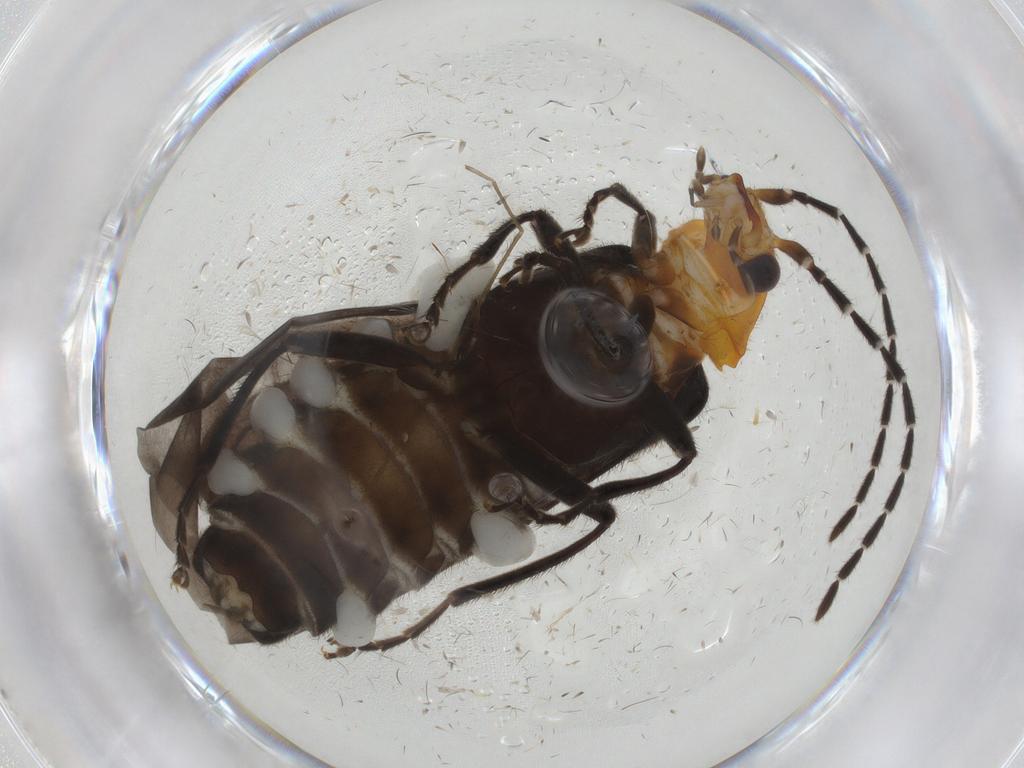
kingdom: Animalia
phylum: Arthropoda
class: Insecta
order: Coleoptera
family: Cantharidae
